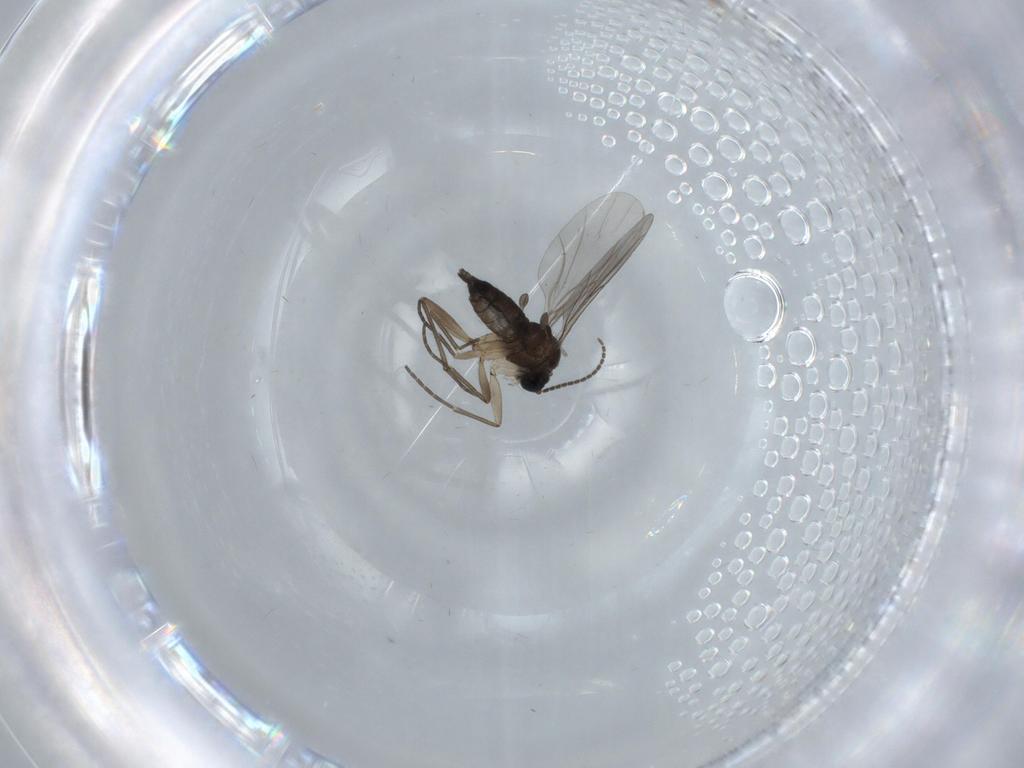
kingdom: Animalia
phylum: Arthropoda
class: Insecta
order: Diptera
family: Sciaridae
